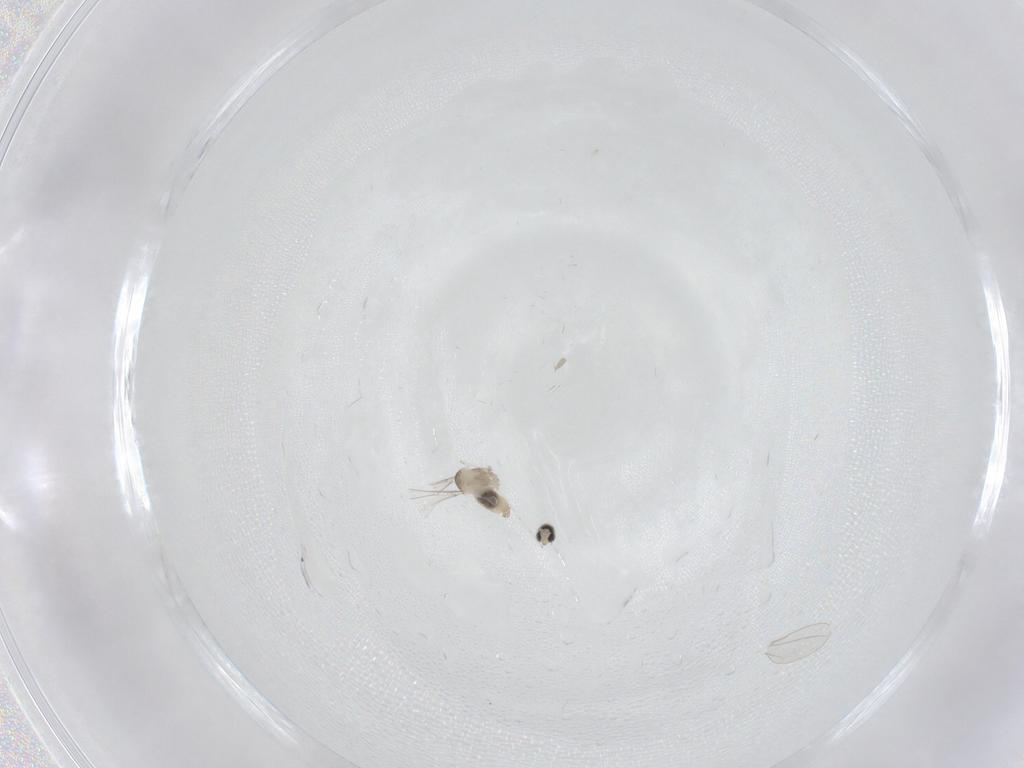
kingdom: Animalia
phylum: Arthropoda
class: Insecta
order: Diptera
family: Cecidomyiidae
